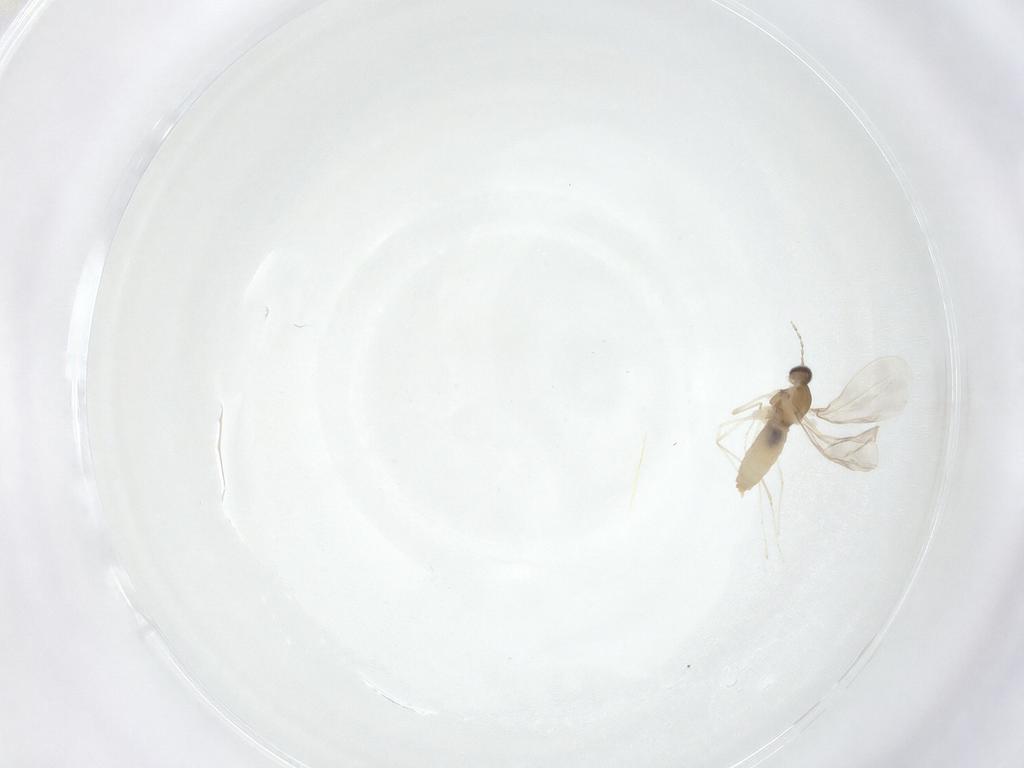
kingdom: Animalia
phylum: Arthropoda
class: Insecta
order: Diptera
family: Cecidomyiidae
